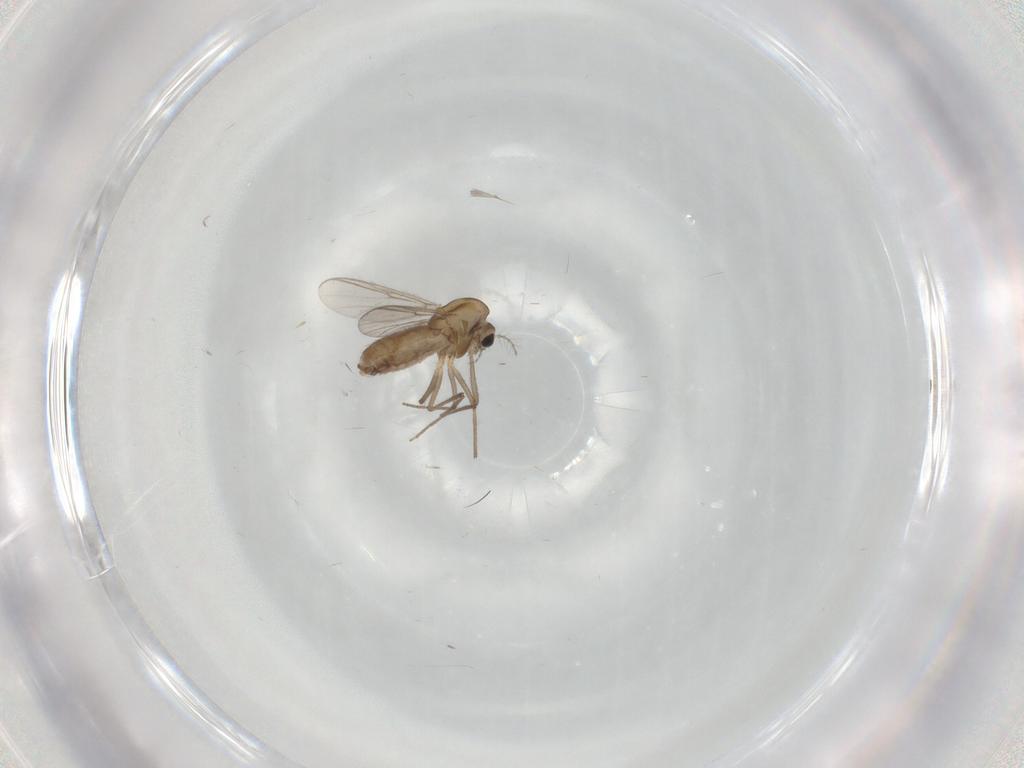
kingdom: Animalia
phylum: Arthropoda
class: Insecta
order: Diptera
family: Chironomidae
